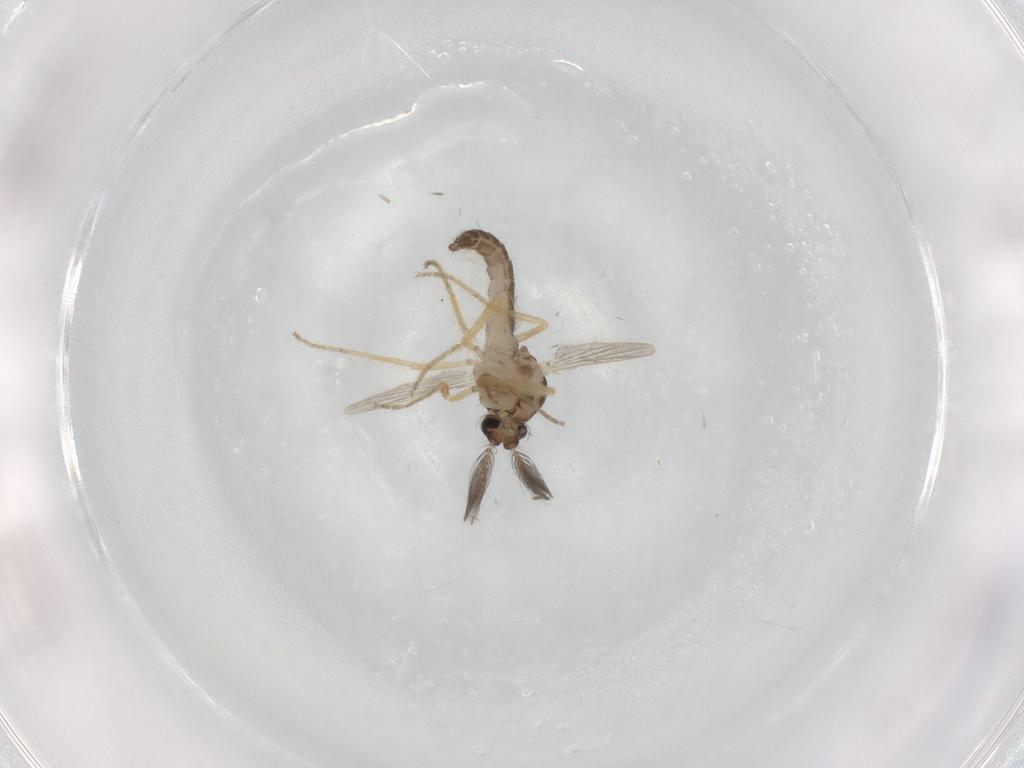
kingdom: Animalia
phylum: Arthropoda
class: Insecta
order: Diptera
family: Ceratopogonidae
